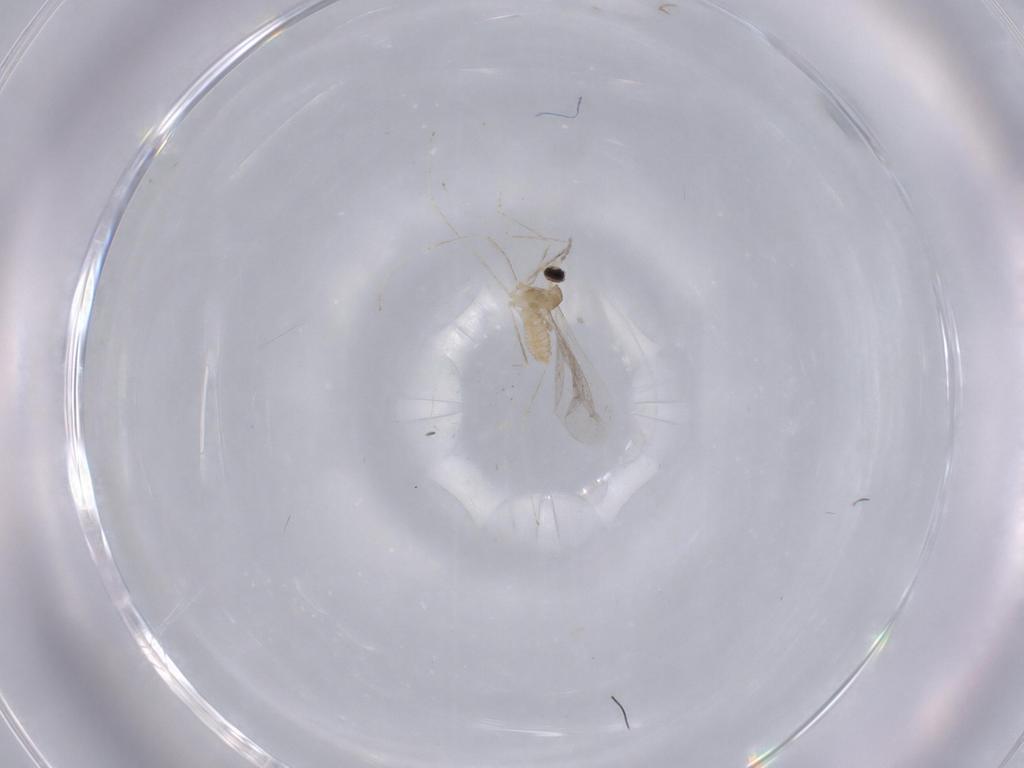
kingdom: Animalia
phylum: Arthropoda
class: Insecta
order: Diptera
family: Cecidomyiidae
